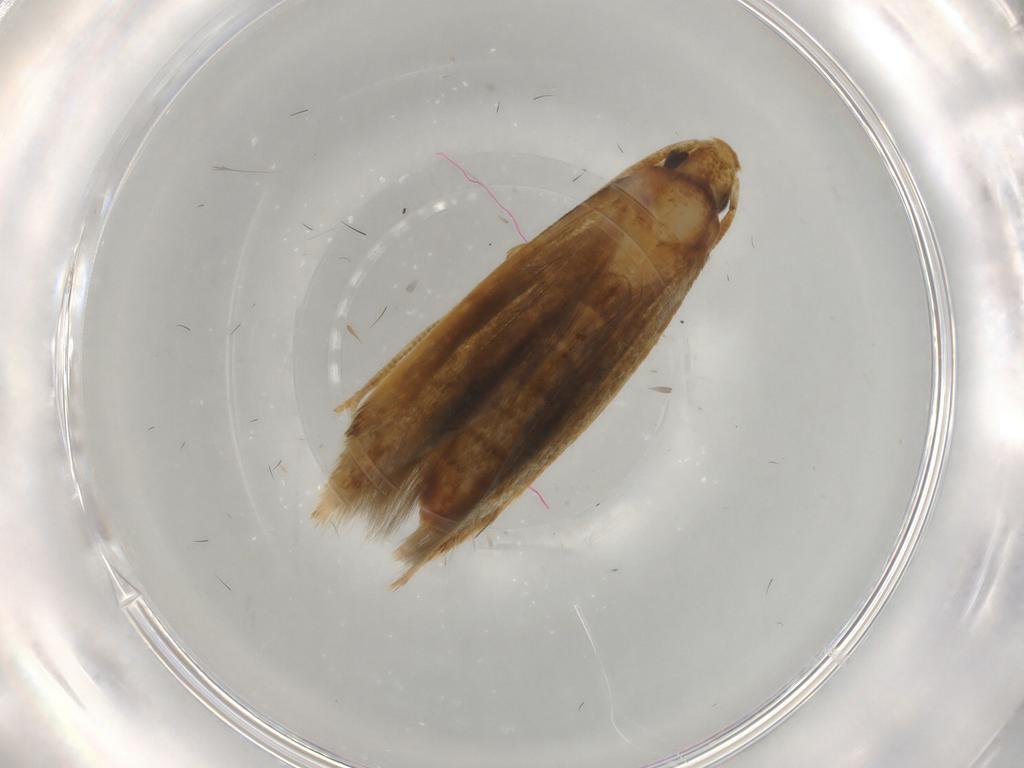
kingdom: Animalia
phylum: Arthropoda
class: Insecta
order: Lepidoptera
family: Tineidae
